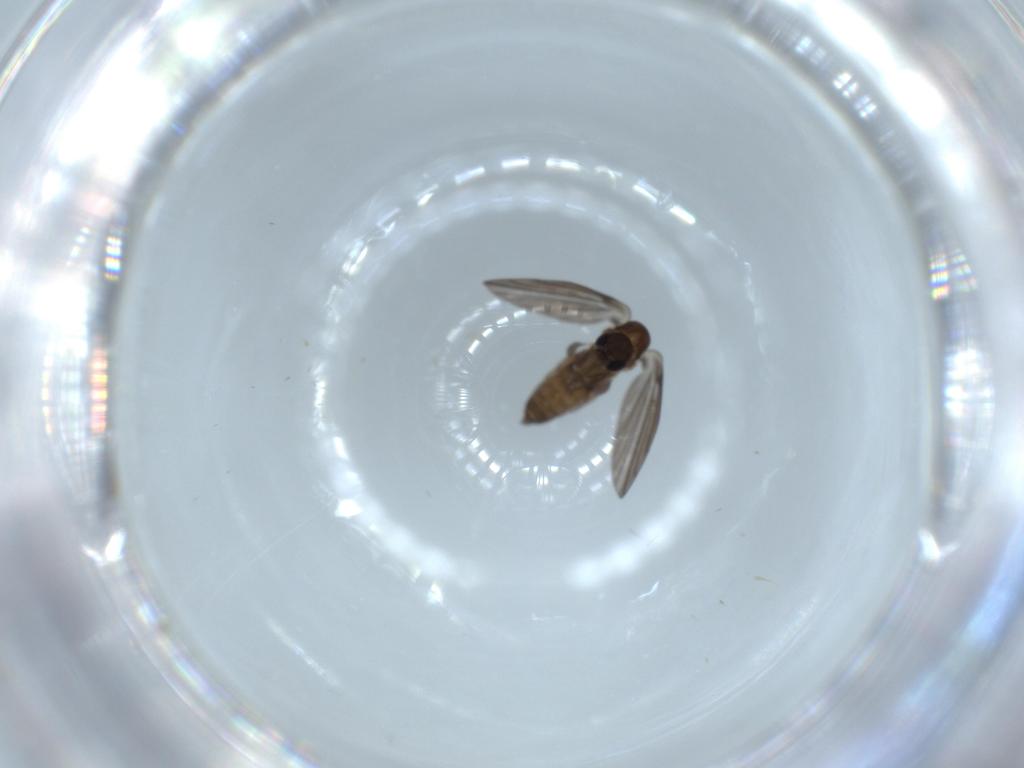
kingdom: Animalia
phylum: Arthropoda
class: Insecta
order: Diptera
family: Psychodidae
